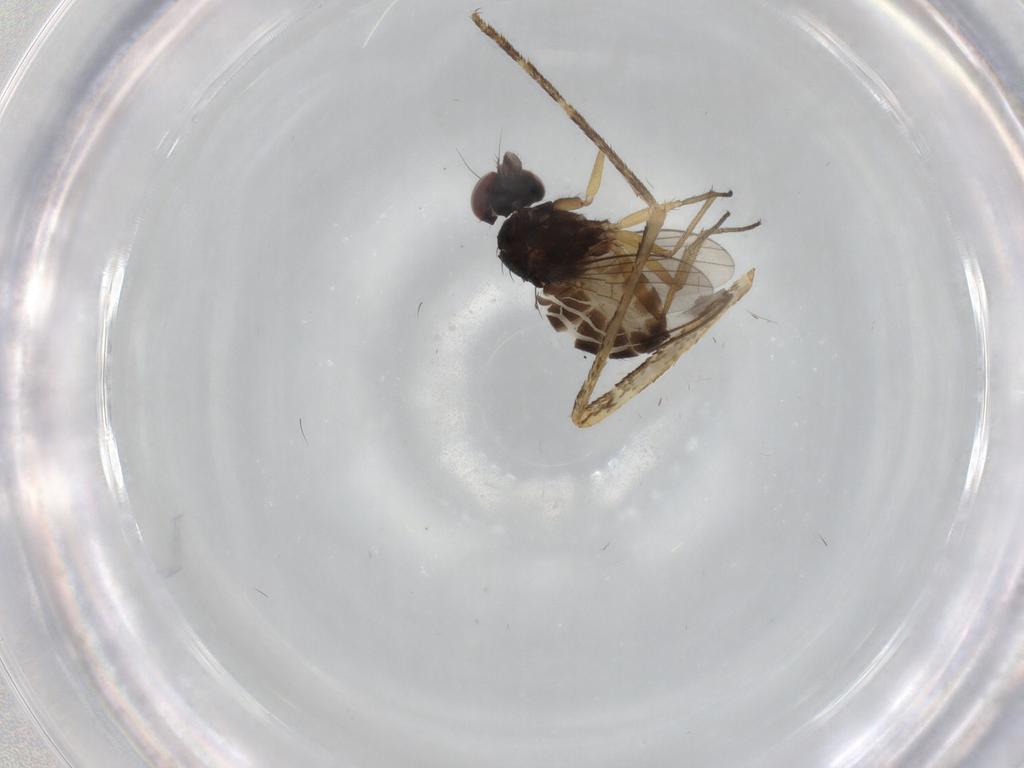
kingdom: Animalia
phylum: Arthropoda
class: Insecta
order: Diptera
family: Dolichopodidae
